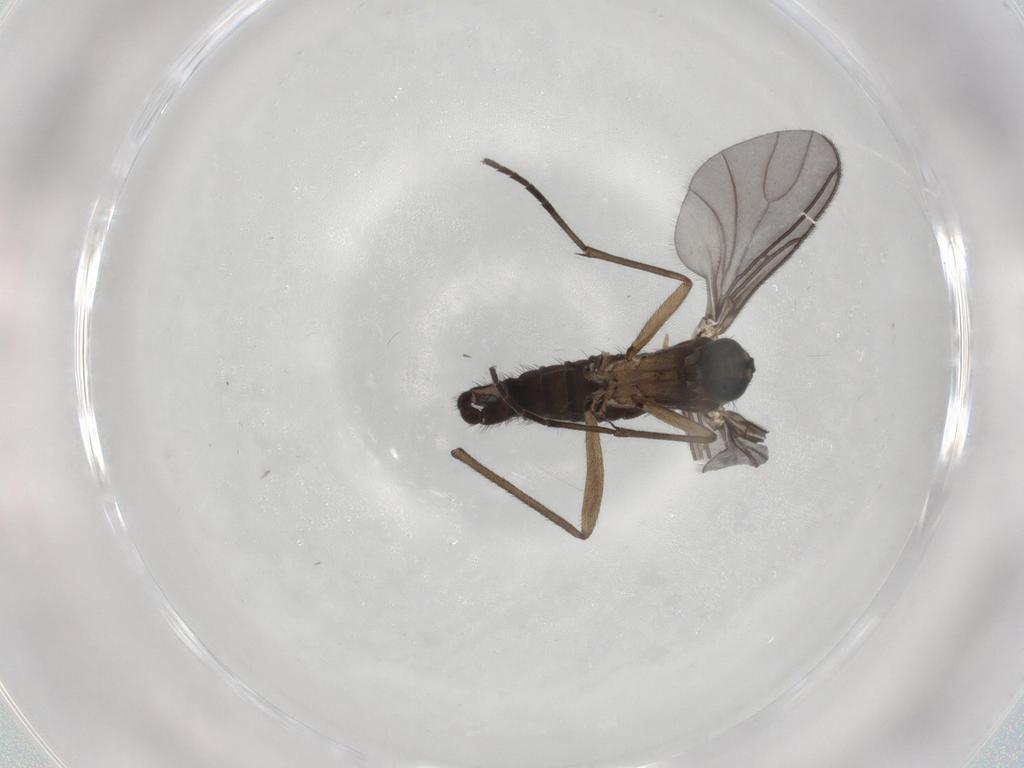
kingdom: Animalia
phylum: Arthropoda
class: Insecta
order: Diptera
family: Sciaridae
